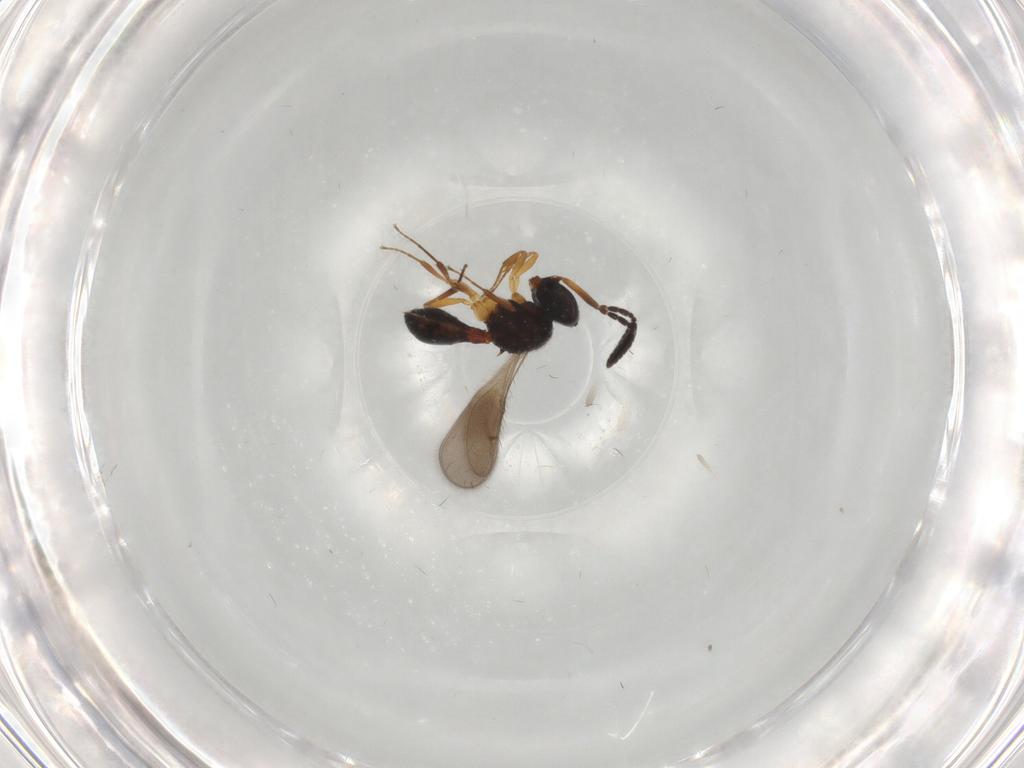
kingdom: Animalia
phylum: Arthropoda
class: Insecta
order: Hymenoptera
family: Scelionidae
